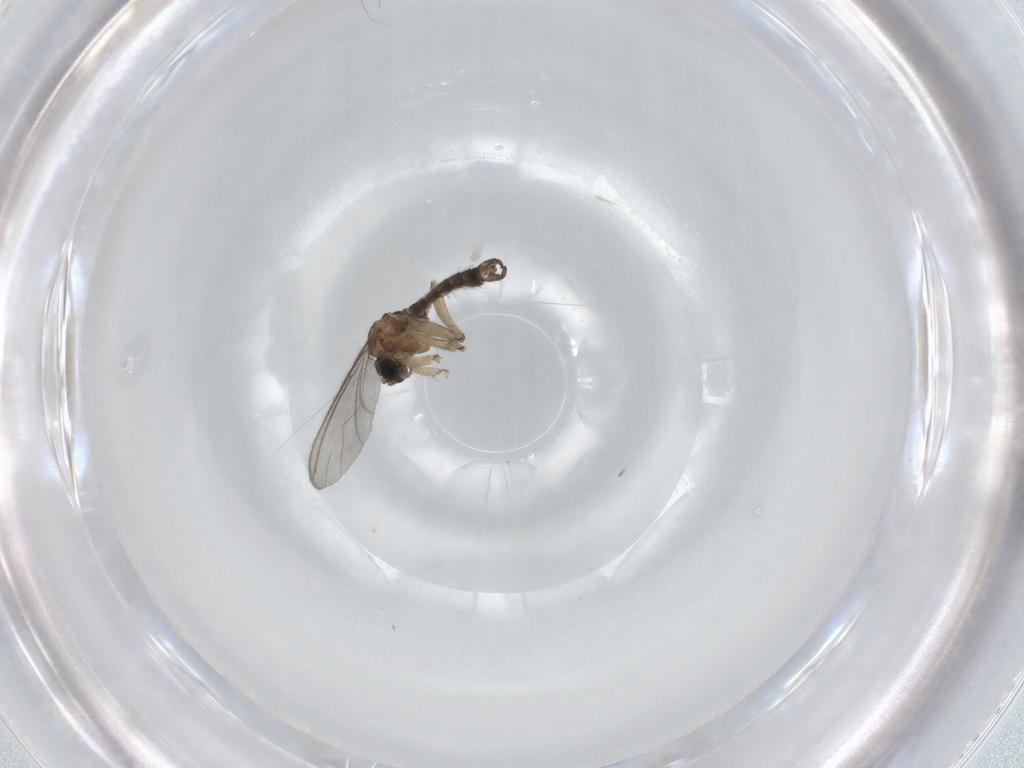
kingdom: Animalia
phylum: Arthropoda
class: Insecta
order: Diptera
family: Sciaridae
